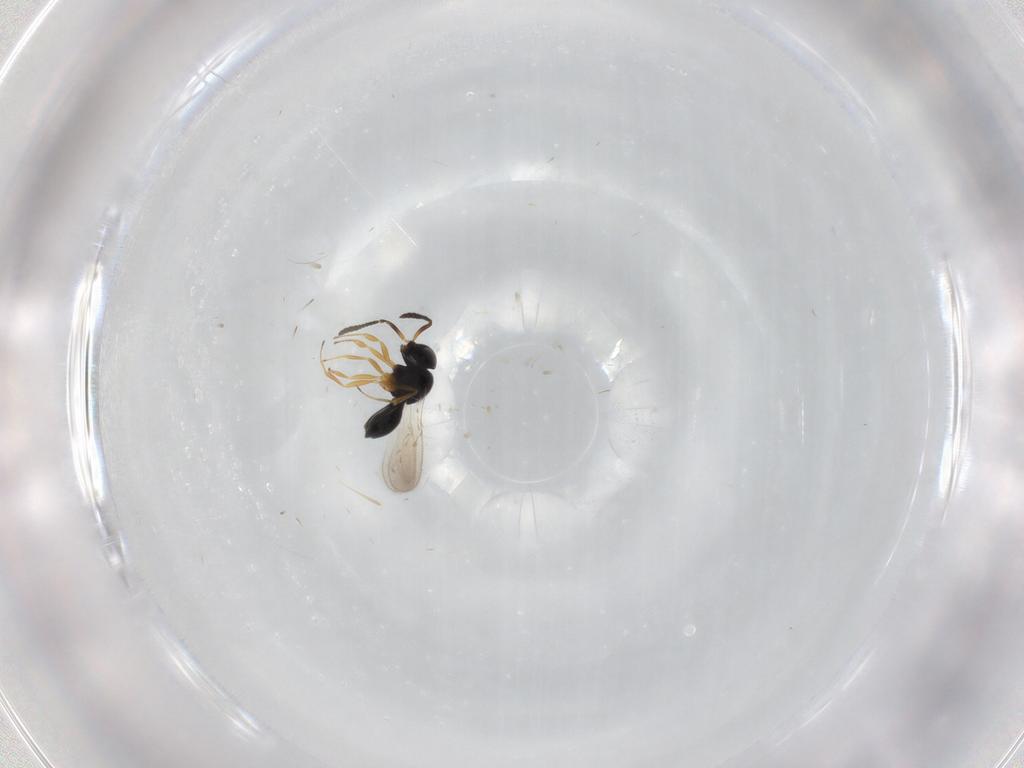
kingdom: Animalia
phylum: Arthropoda
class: Insecta
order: Hymenoptera
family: Scelionidae
